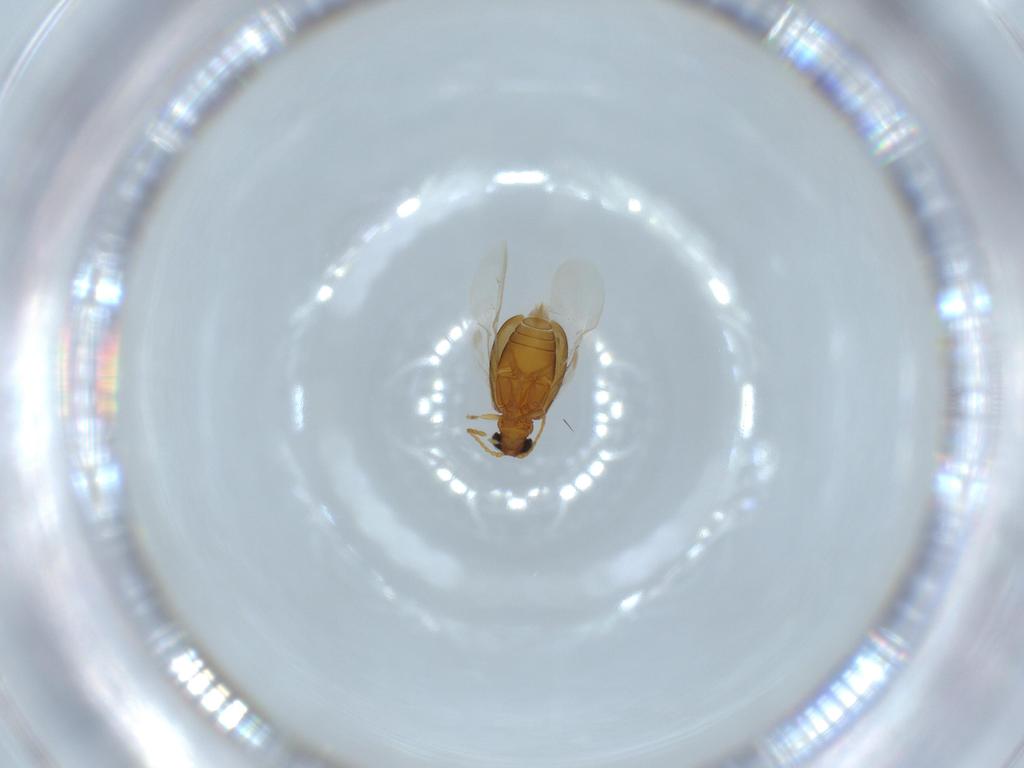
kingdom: Animalia
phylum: Arthropoda
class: Insecta
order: Coleoptera
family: Aderidae
